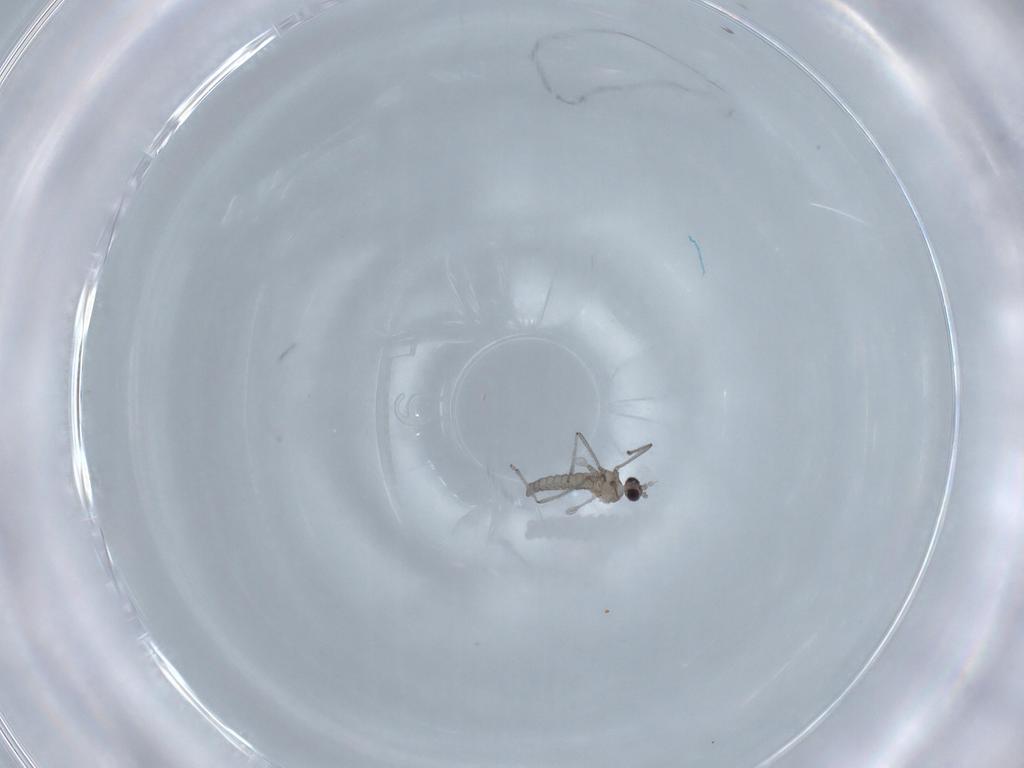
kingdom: Animalia
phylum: Arthropoda
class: Insecta
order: Diptera
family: Cecidomyiidae
